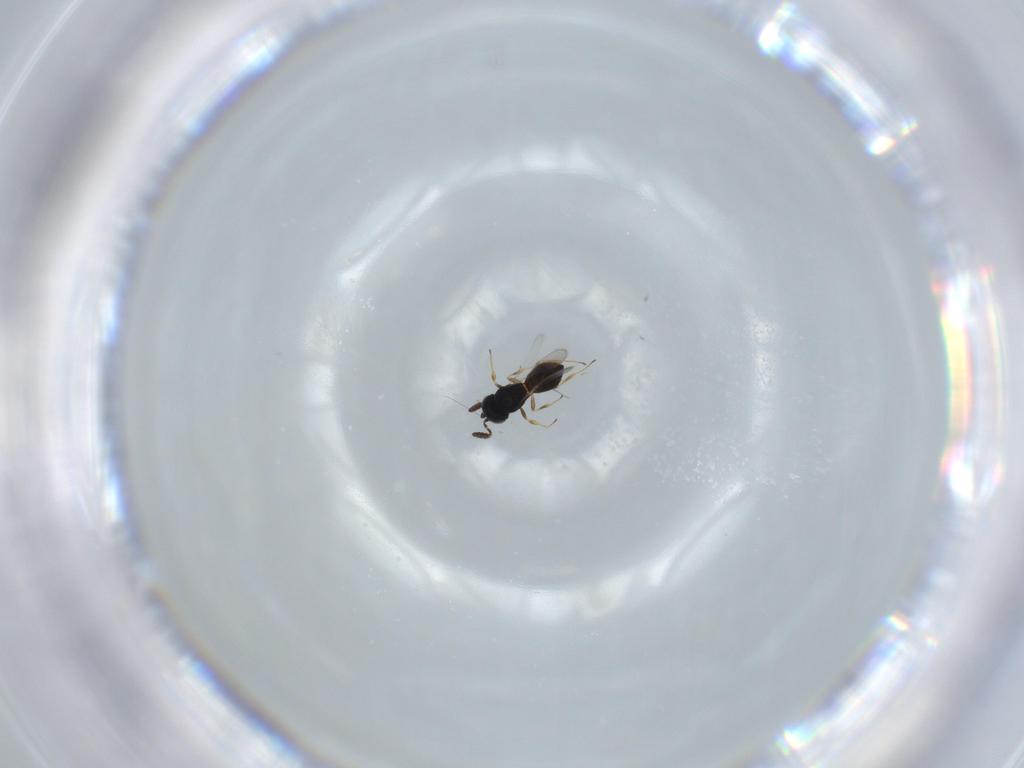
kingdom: Animalia
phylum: Arthropoda
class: Insecta
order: Hymenoptera
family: Scelionidae
